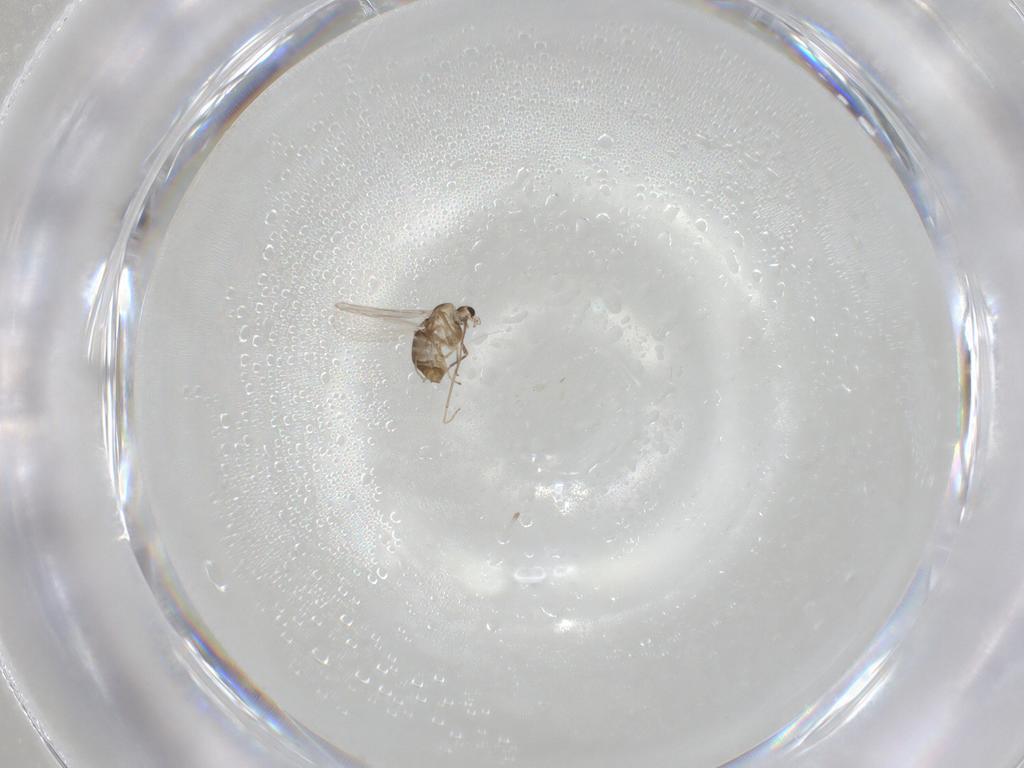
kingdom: Animalia
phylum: Arthropoda
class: Insecta
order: Diptera
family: Chironomidae
